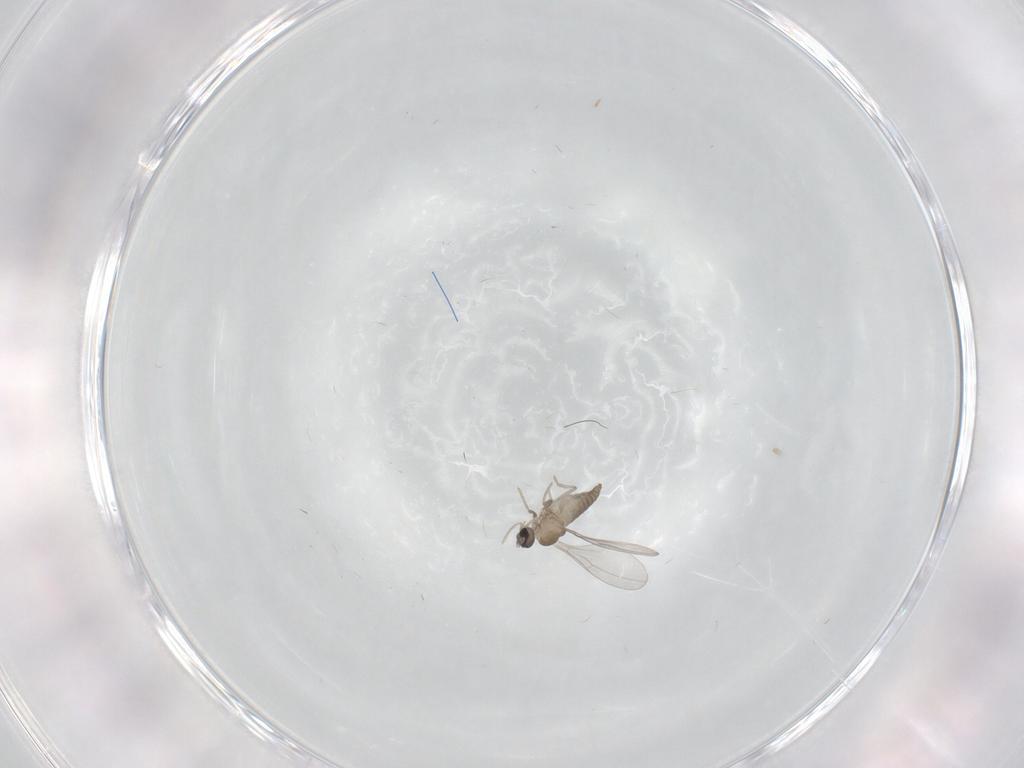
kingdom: Animalia
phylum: Arthropoda
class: Insecta
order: Diptera
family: Cecidomyiidae
